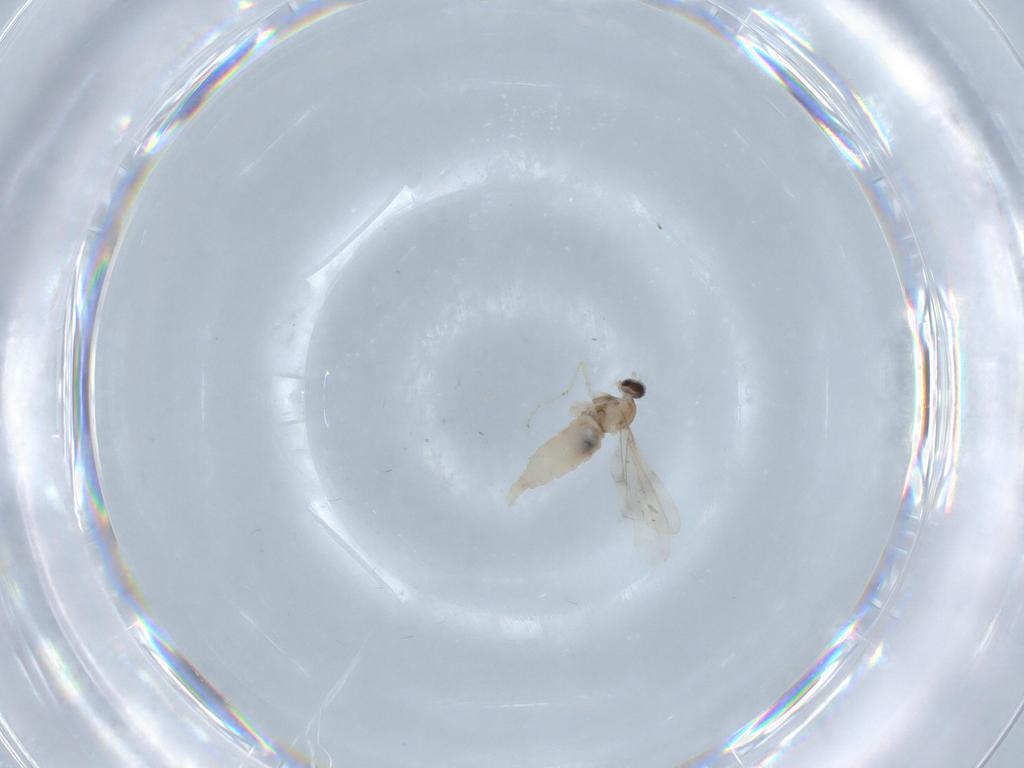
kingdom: Animalia
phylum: Arthropoda
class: Insecta
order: Diptera
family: Cecidomyiidae
